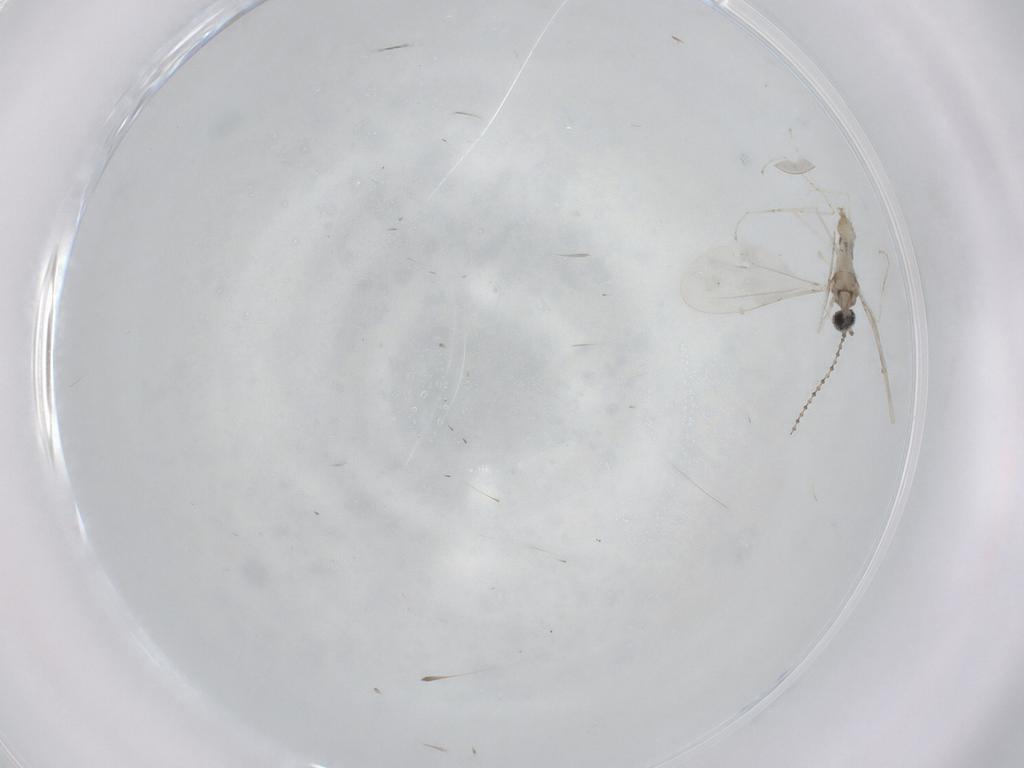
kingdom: Animalia
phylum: Arthropoda
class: Insecta
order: Diptera
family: Cecidomyiidae
